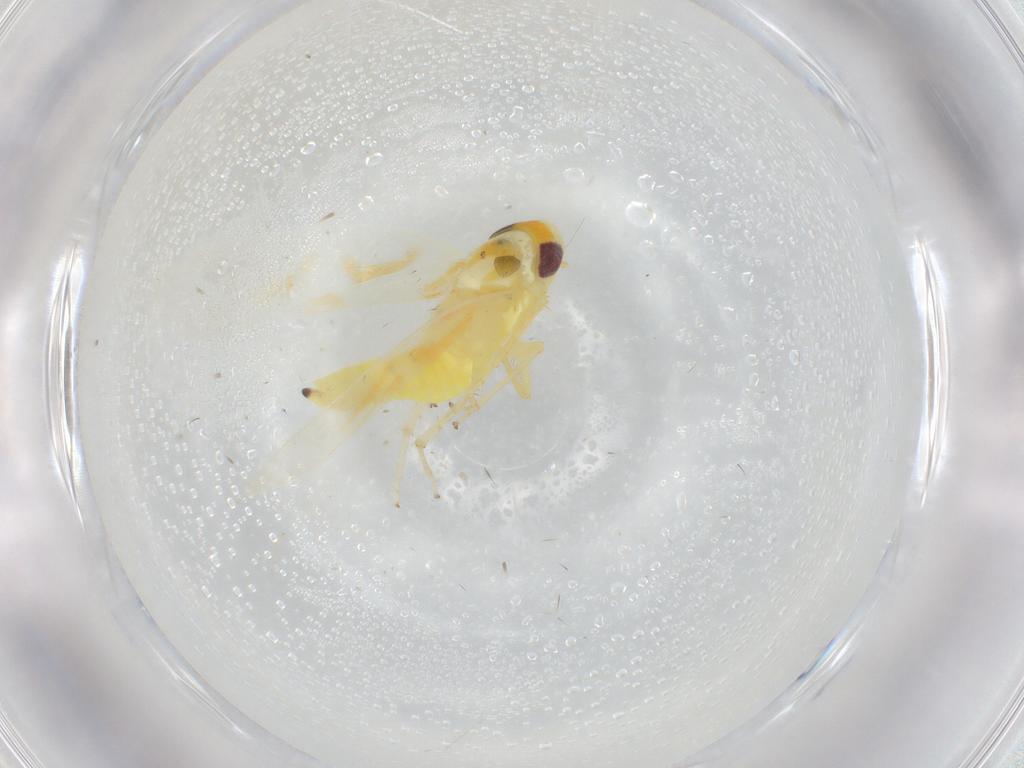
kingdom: Animalia
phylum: Arthropoda
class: Insecta
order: Hemiptera
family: Cicadellidae
